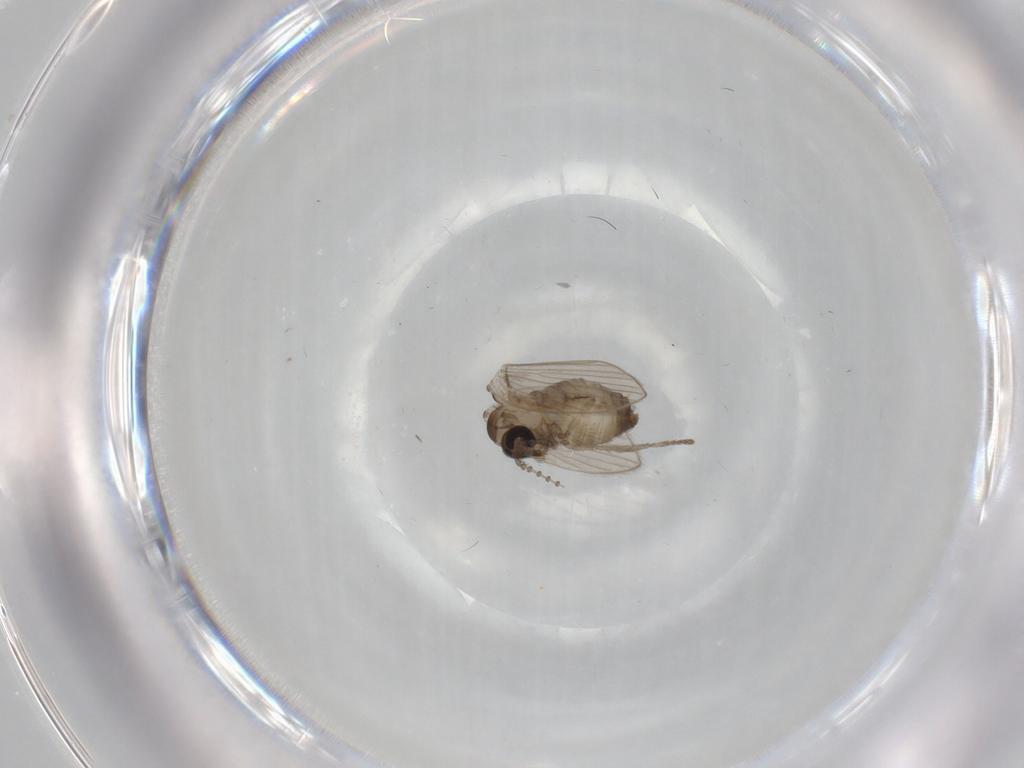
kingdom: Animalia
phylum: Arthropoda
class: Insecta
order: Diptera
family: Psychodidae
